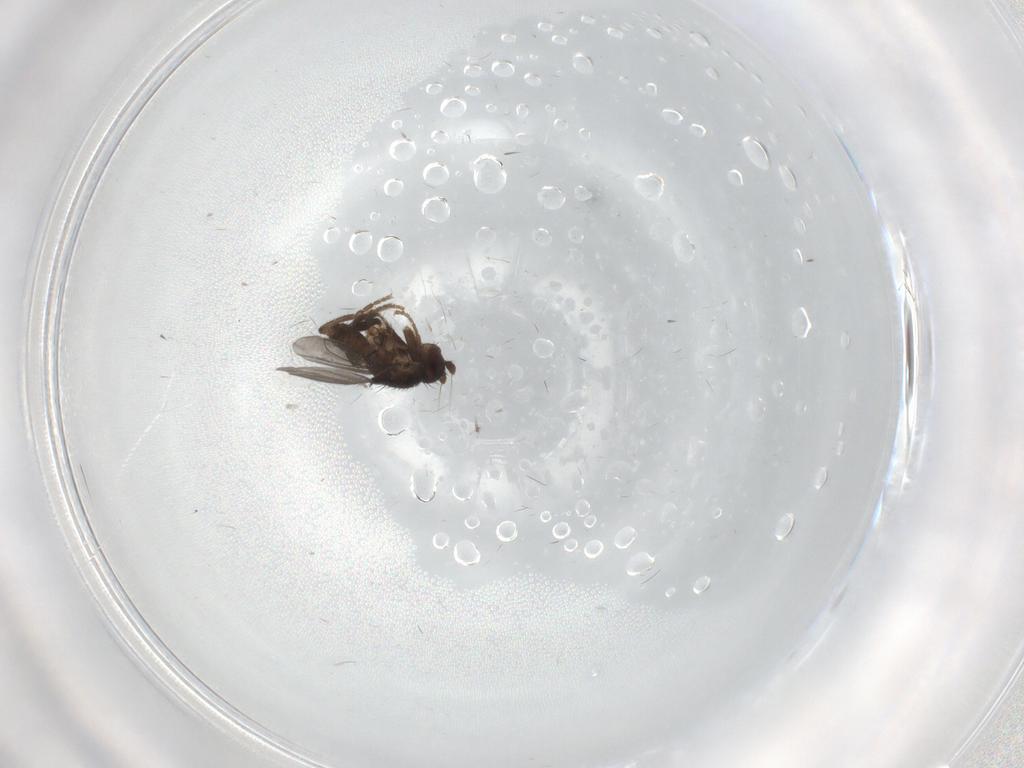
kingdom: Animalia
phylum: Arthropoda
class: Insecta
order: Diptera
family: Sphaeroceridae
